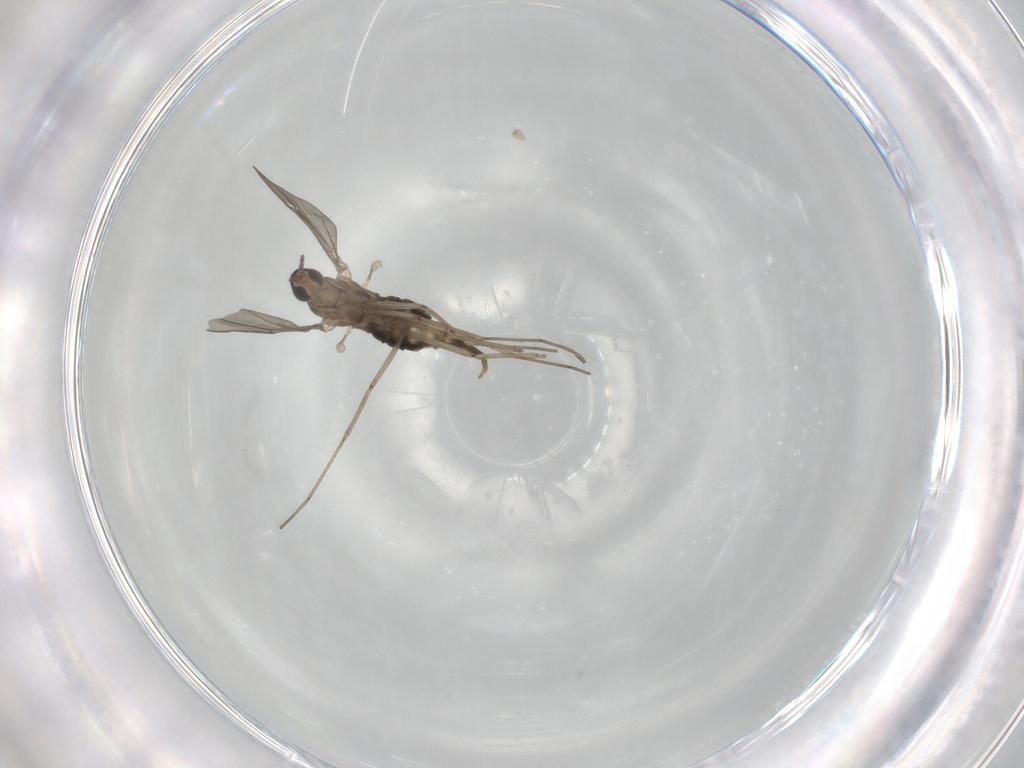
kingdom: Animalia
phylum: Arthropoda
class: Insecta
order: Diptera
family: Cecidomyiidae
